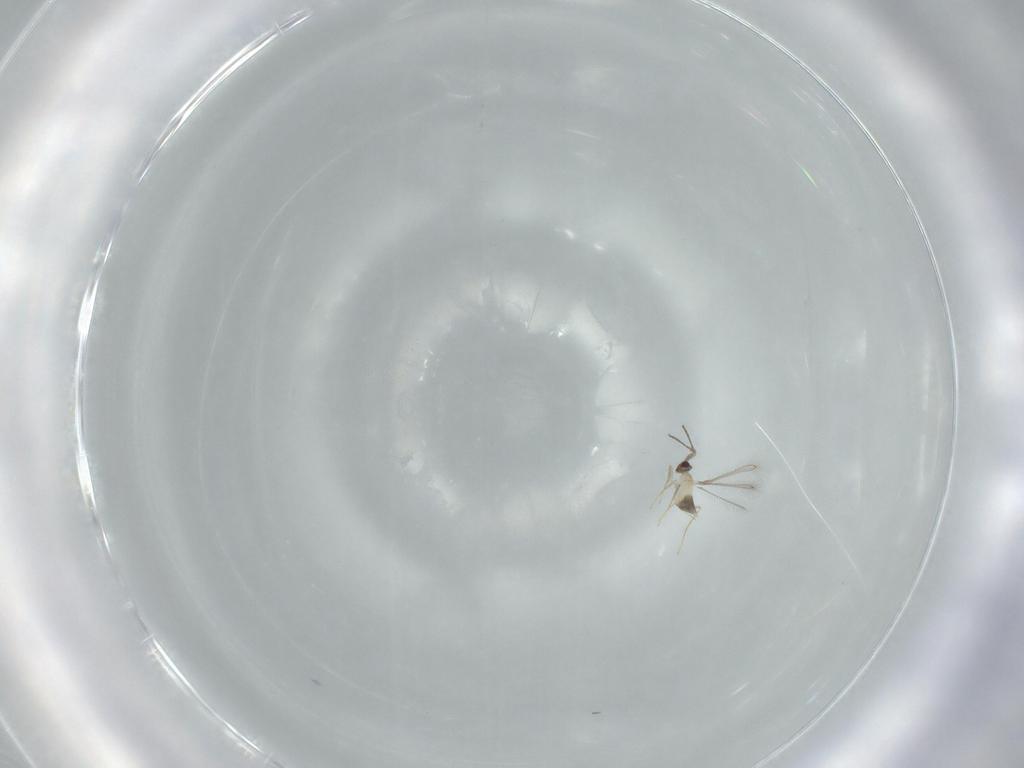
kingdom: Animalia
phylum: Arthropoda
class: Insecta
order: Hymenoptera
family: Mymaridae
